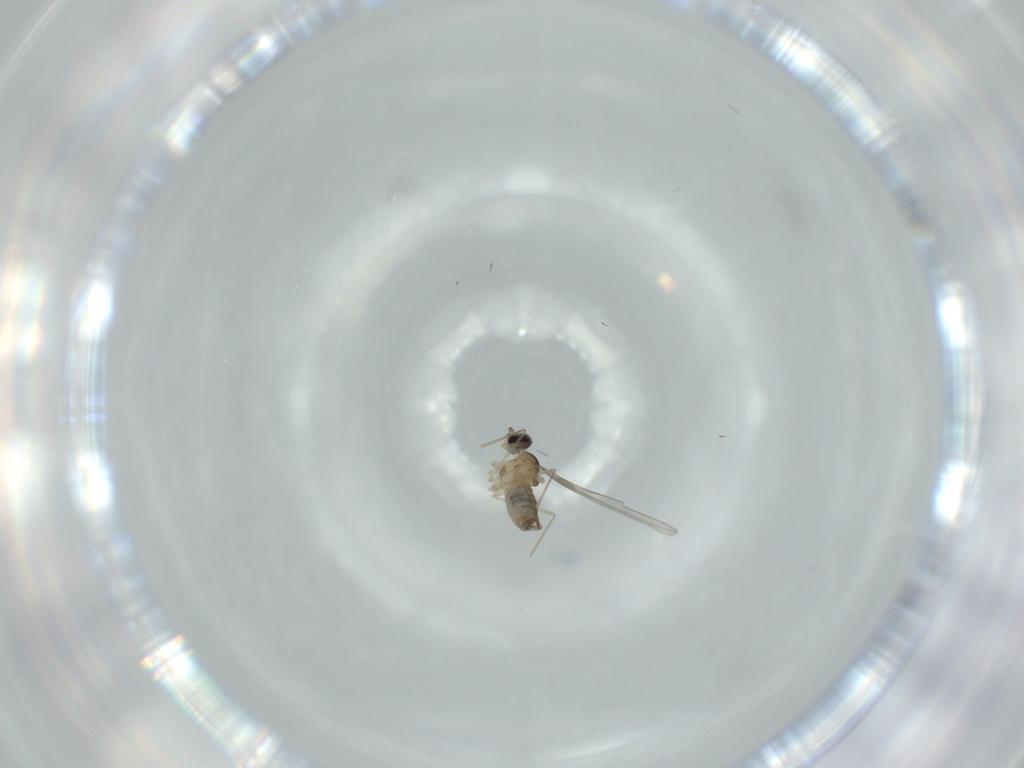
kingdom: Animalia
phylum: Arthropoda
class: Insecta
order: Diptera
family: Cecidomyiidae
